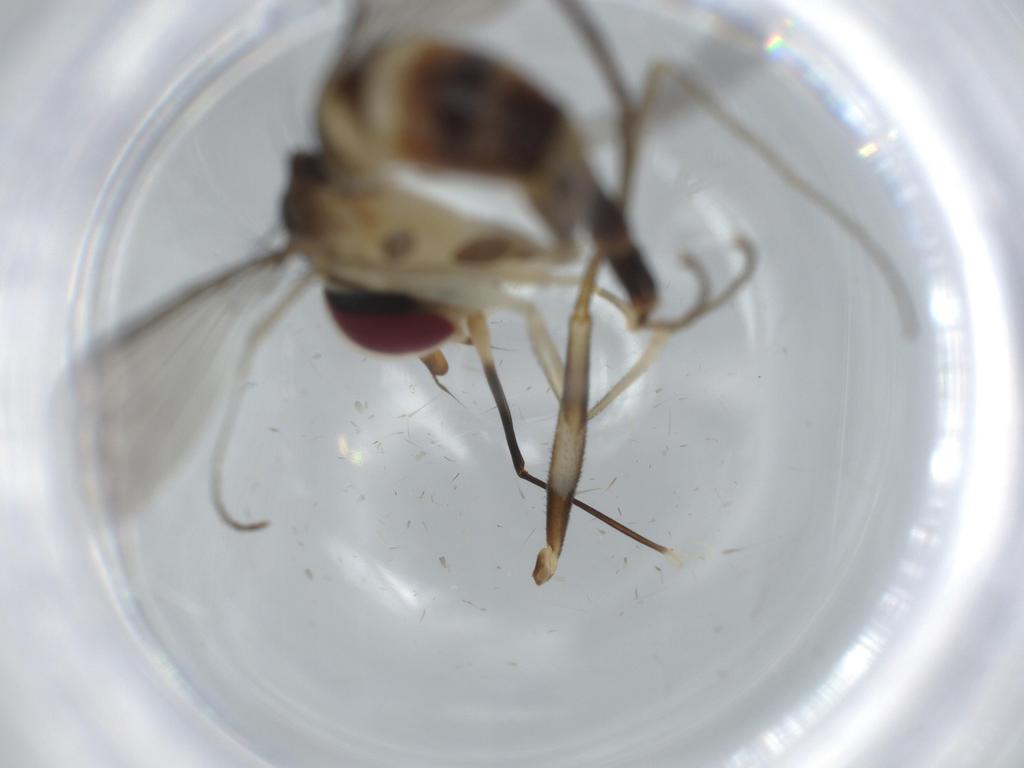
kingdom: Animalia
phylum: Arthropoda
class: Insecta
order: Diptera
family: Conopidae
